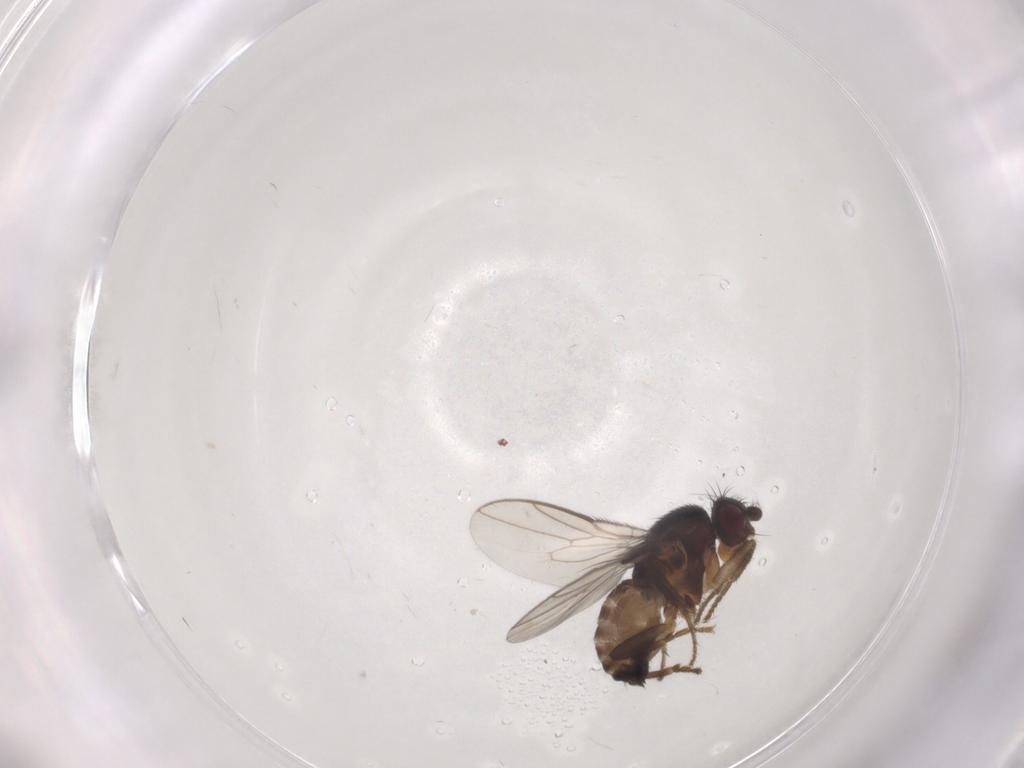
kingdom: Animalia
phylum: Arthropoda
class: Insecta
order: Diptera
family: Sphaeroceridae
